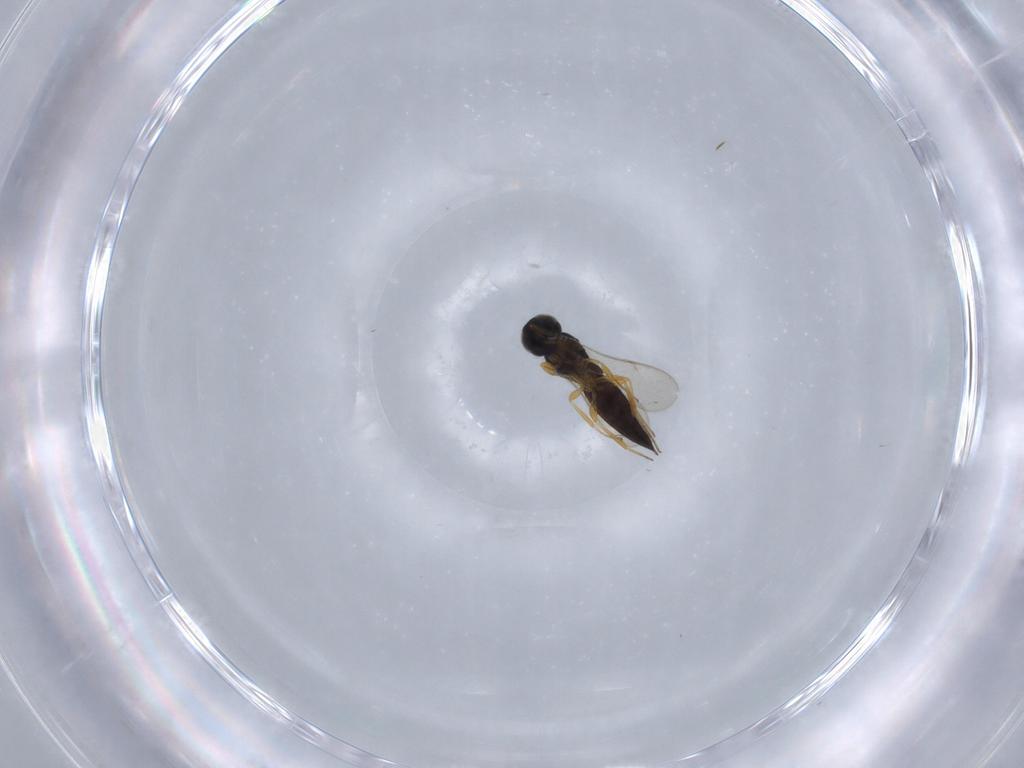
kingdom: Animalia
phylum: Arthropoda
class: Insecta
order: Hymenoptera
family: Scelionidae
